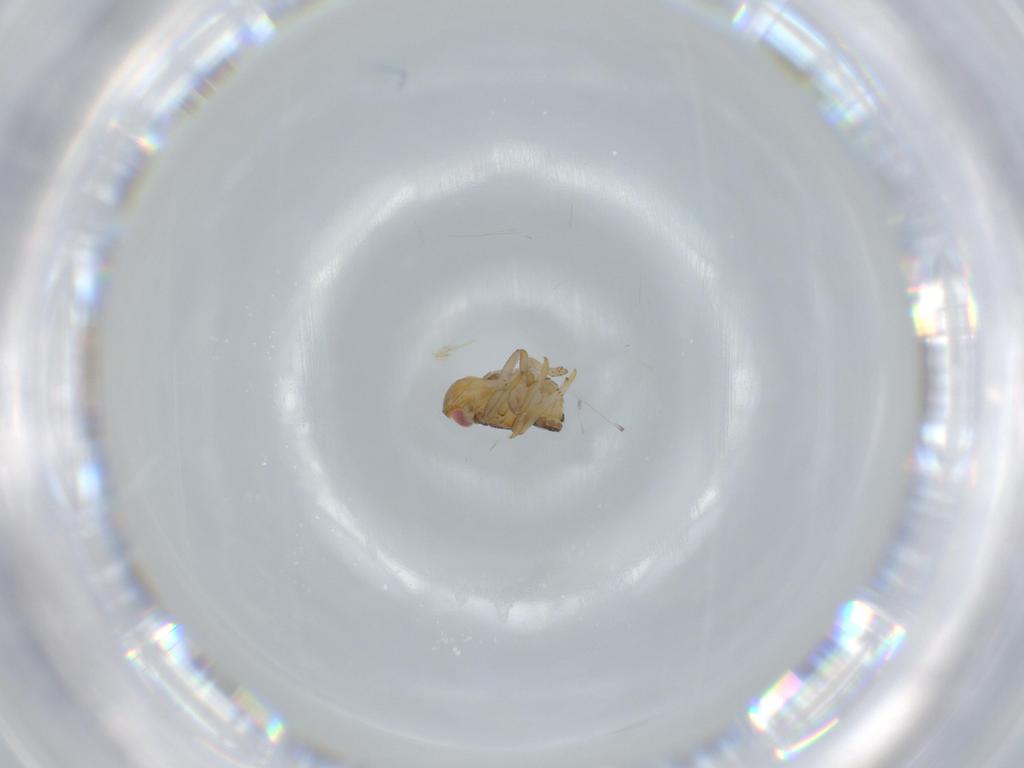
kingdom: Animalia
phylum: Arthropoda
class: Insecta
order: Hemiptera
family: Issidae
